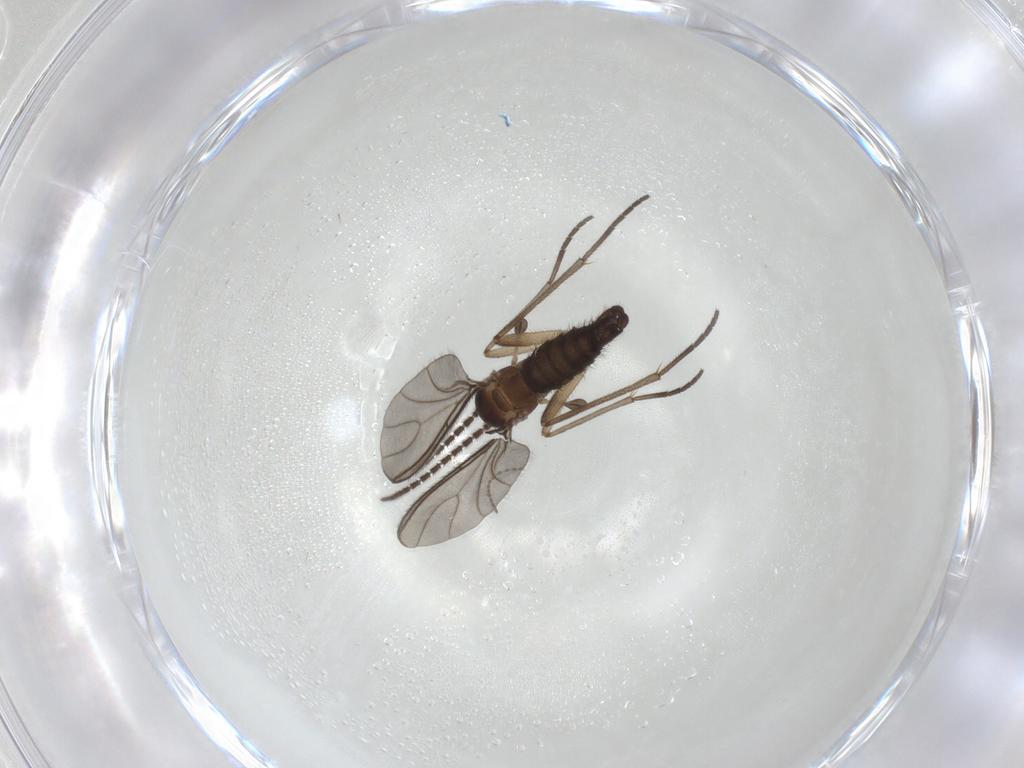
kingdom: Animalia
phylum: Arthropoda
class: Insecta
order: Diptera
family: Sciaridae
